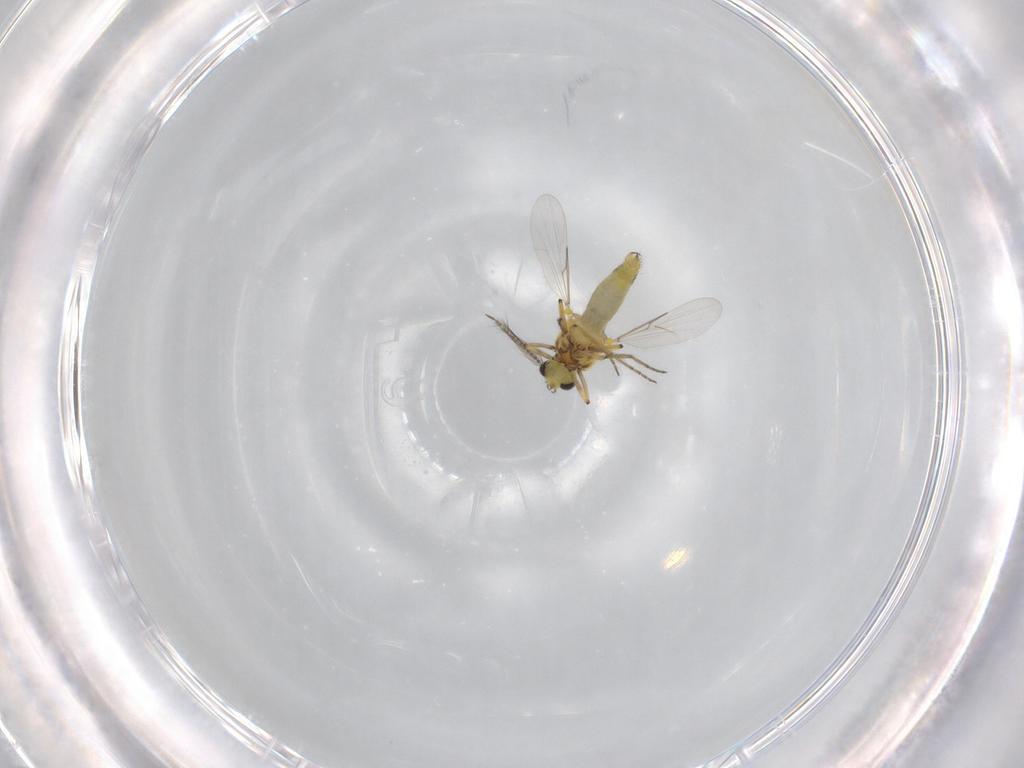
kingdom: Animalia
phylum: Arthropoda
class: Insecta
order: Diptera
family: Ceratopogonidae
